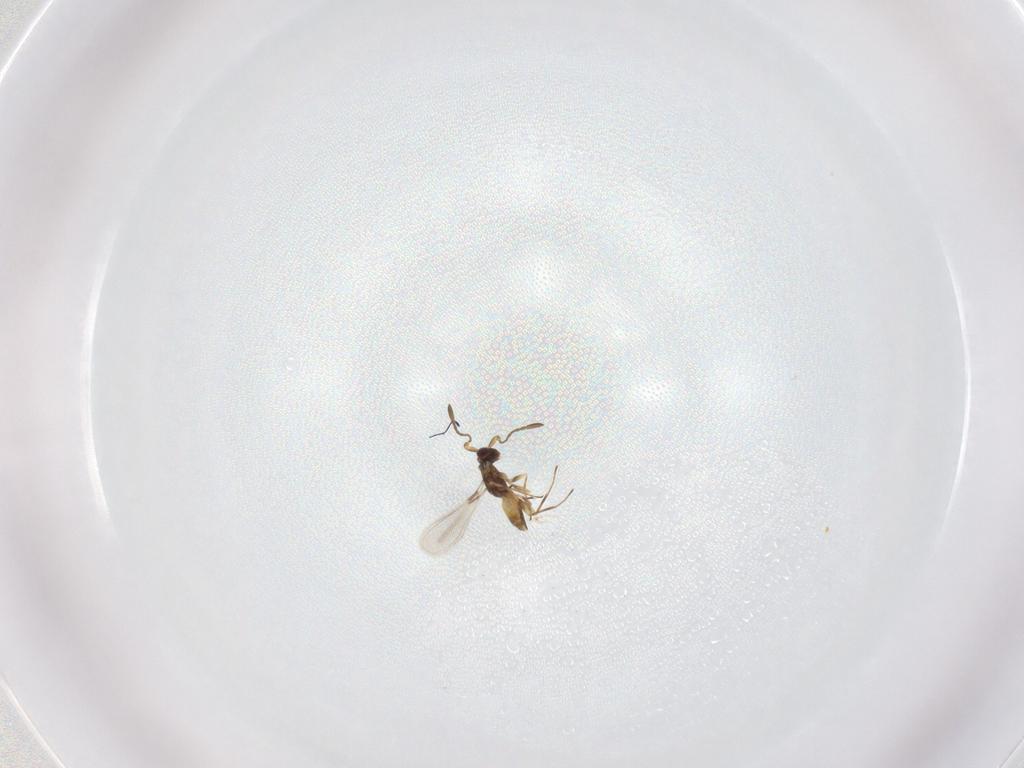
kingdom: Animalia
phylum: Arthropoda
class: Insecta
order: Hymenoptera
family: Mymaridae
